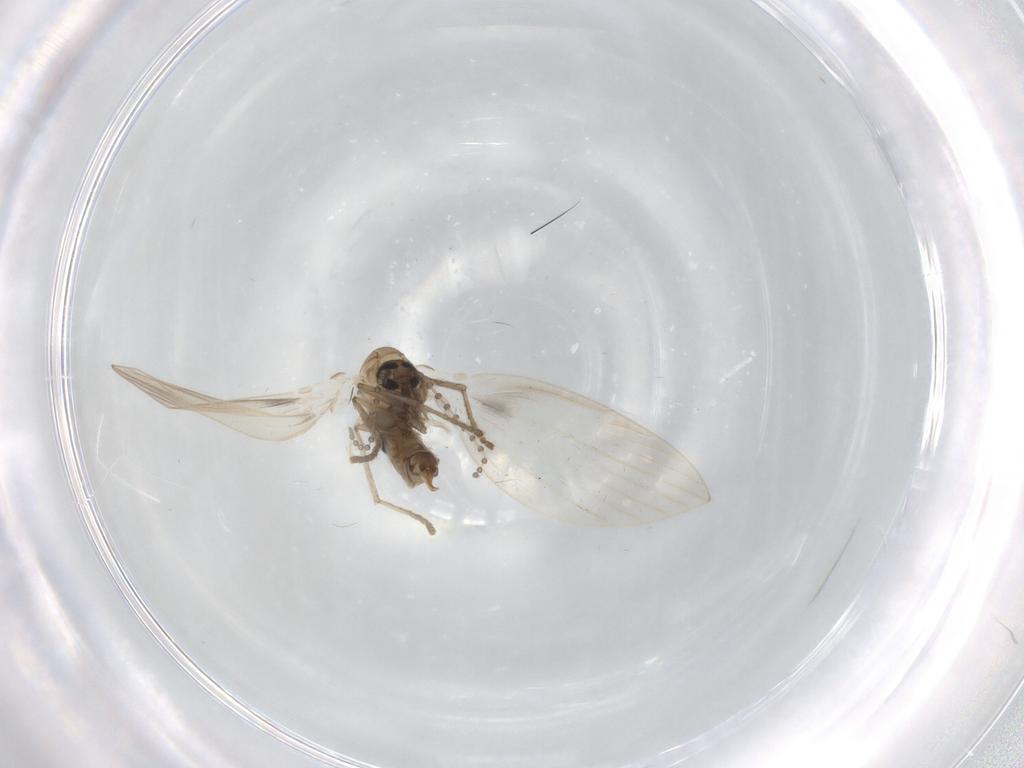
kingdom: Animalia
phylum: Arthropoda
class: Insecta
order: Diptera
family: Psychodidae
